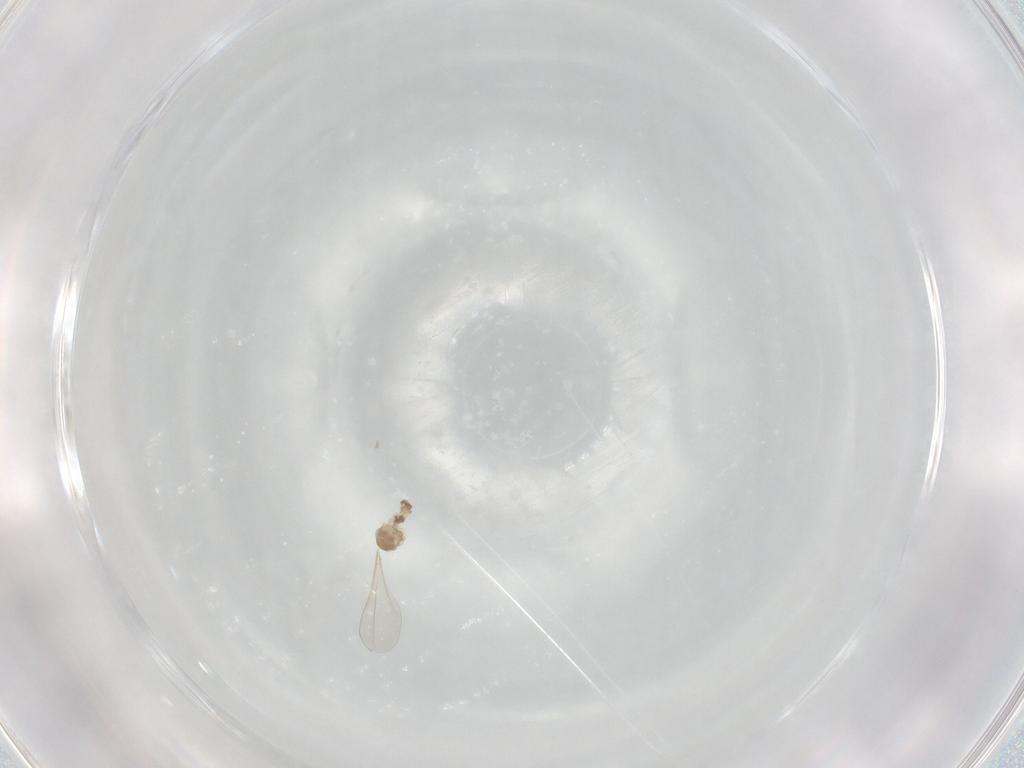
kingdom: Animalia
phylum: Arthropoda
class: Insecta
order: Diptera
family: Cecidomyiidae
